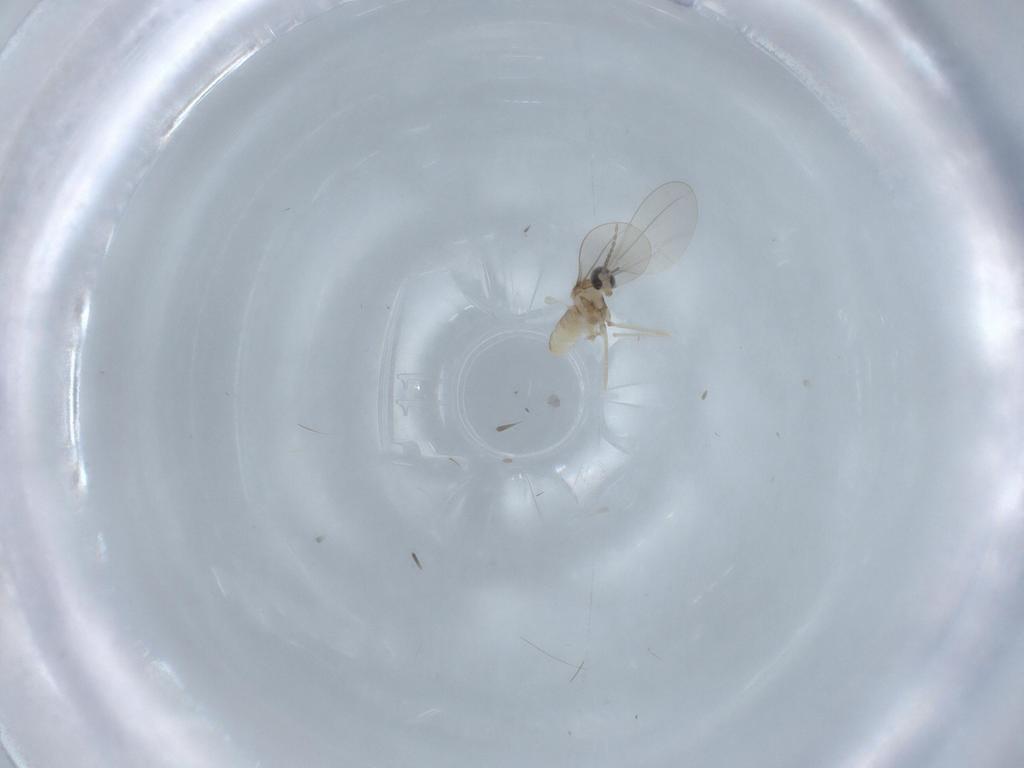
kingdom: Animalia
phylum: Arthropoda
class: Insecta
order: Diptera
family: Cecidomyiidae
